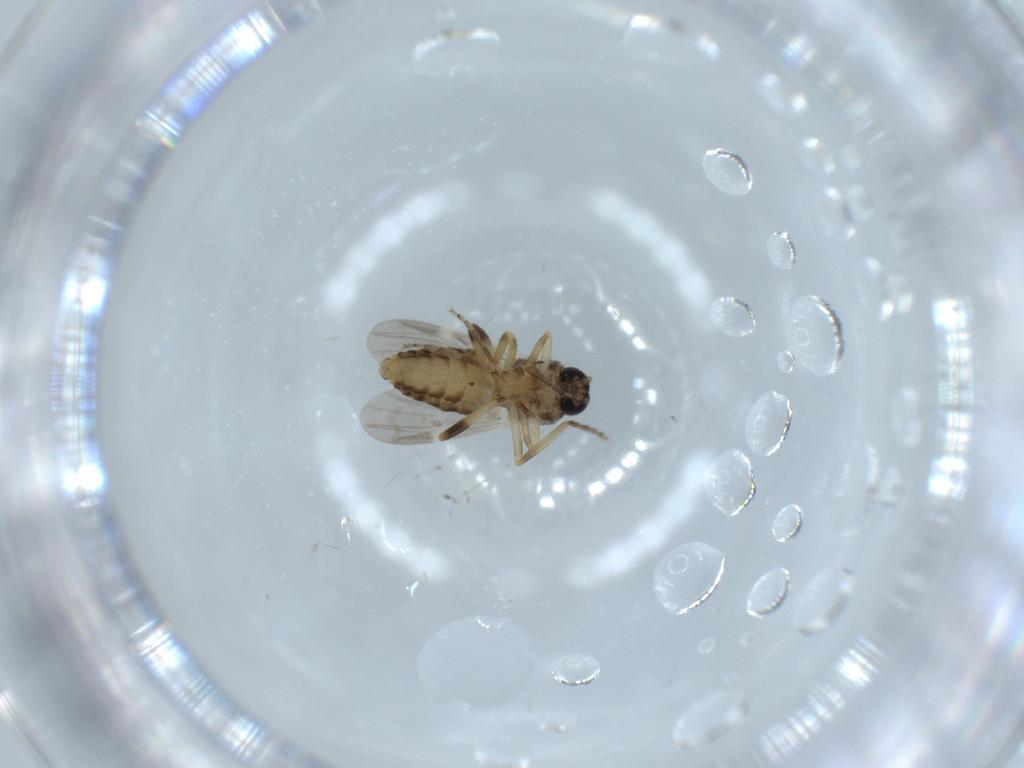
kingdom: Animalia
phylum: Arthropoda
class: Insecta
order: Diptera
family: Ceratopogonidae
